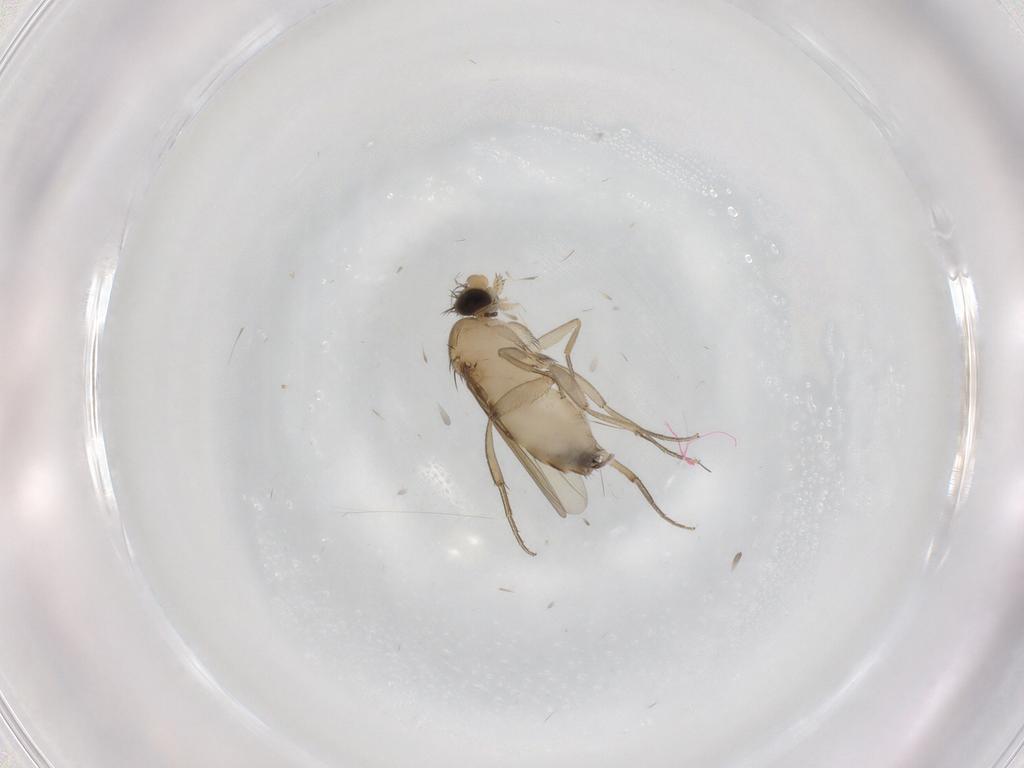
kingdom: Animalia
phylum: Arthropoda
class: Insecta
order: Diptera
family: Phoridae
